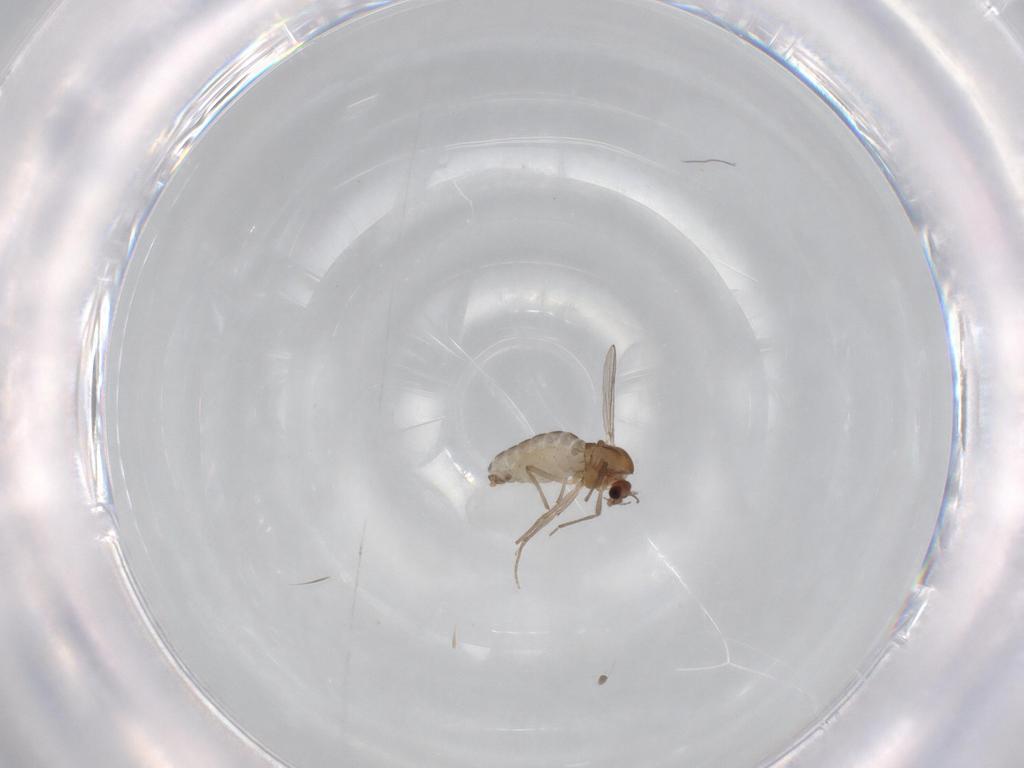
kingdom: Animalia
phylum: Arthropoda
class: Insecta
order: Diptera
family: Chironomidae
